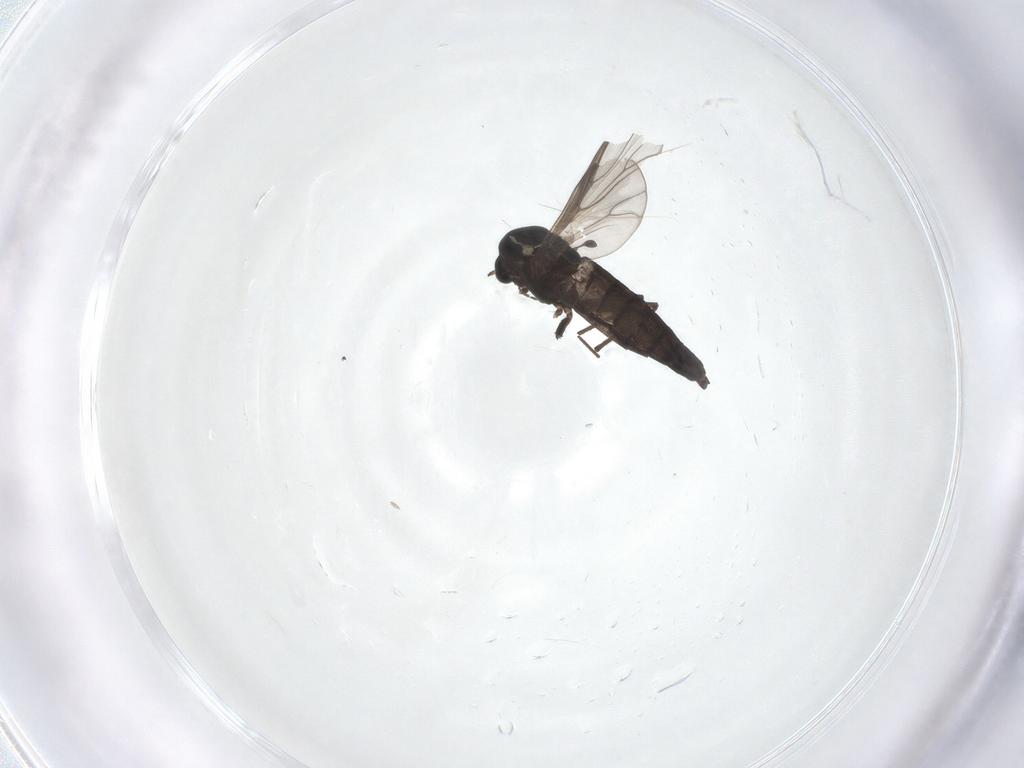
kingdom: Animalia
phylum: Arthropoda
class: Insecta
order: Diptera
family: Chironomidae
